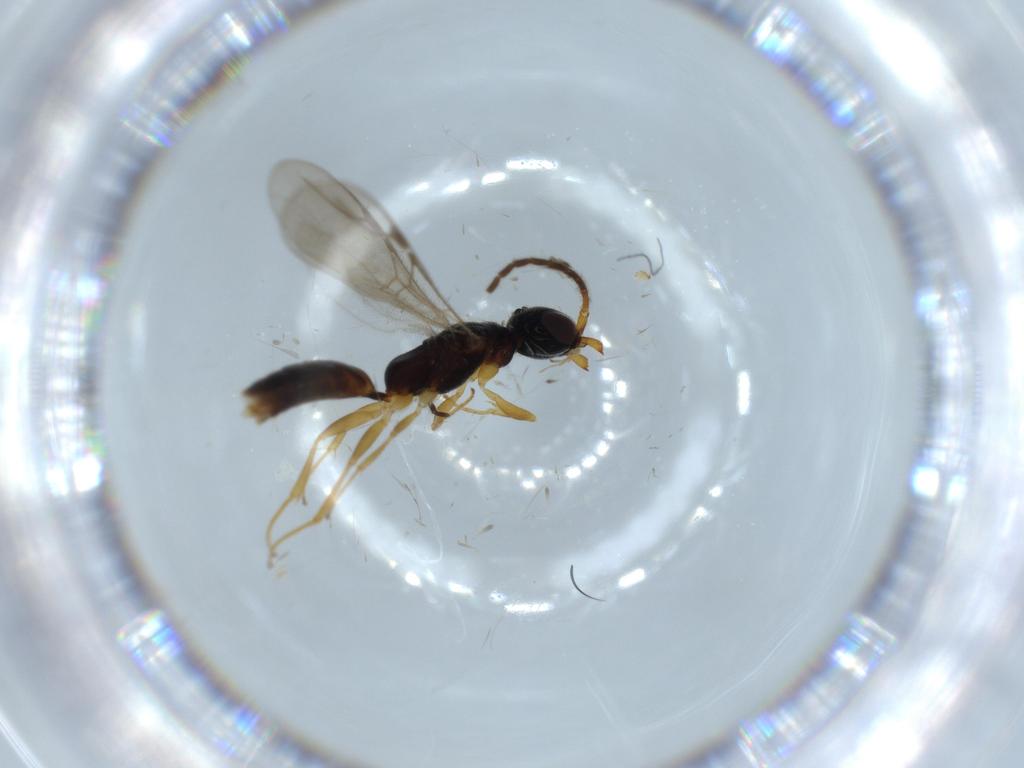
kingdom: Animalia
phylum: Arthropoda
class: Insecta
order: Hymenoptera
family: Bethylidae
